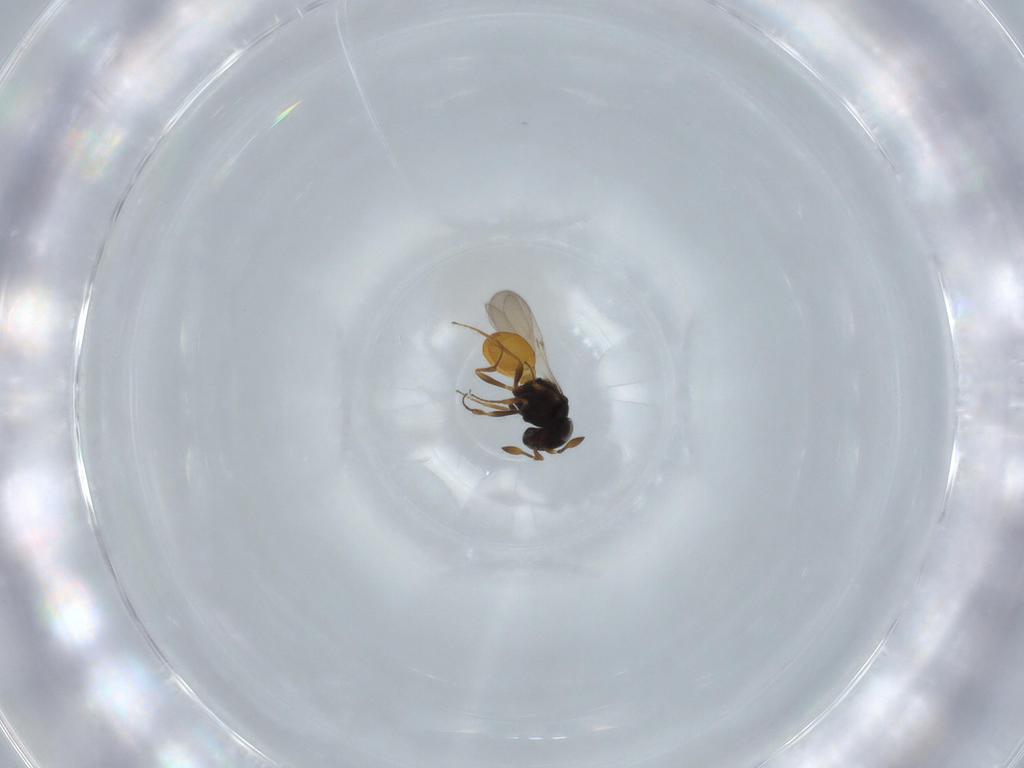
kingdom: Animalia
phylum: Arthropoda
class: Insecta
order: Hymenoptera
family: Scelionidae
